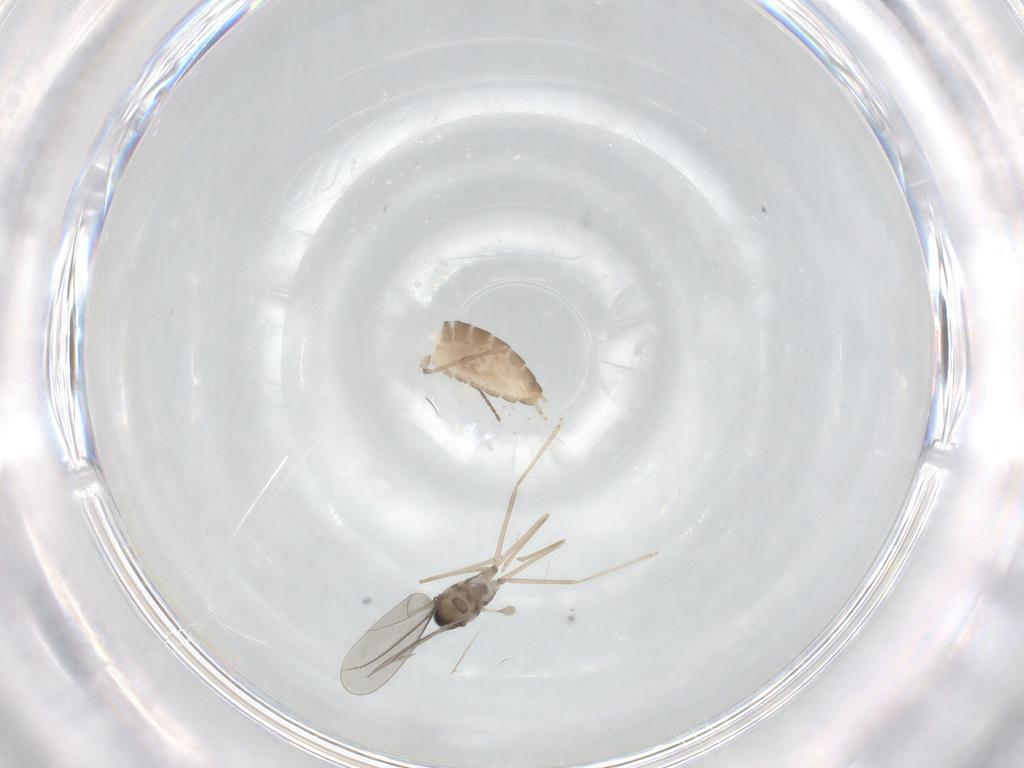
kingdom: Animalia
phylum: Arthropoda
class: Insecta
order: Diptera
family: Cecidomyiidae
